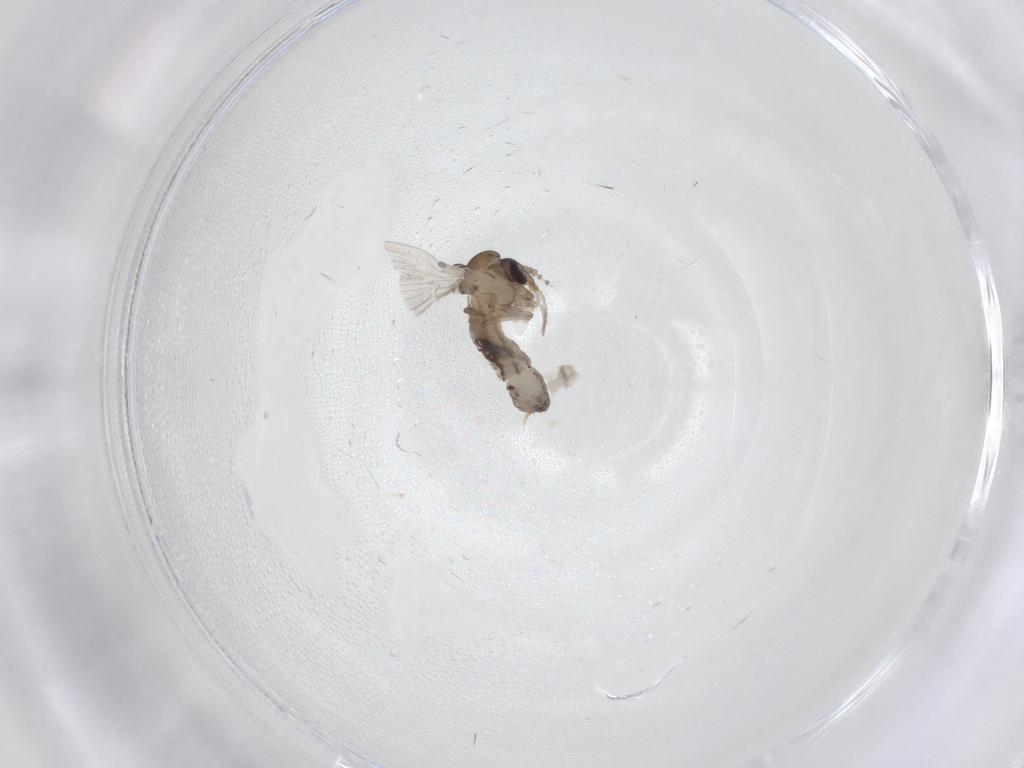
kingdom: Animalia
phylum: Arthropoda
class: Insecta
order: Diptera
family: Psychodidae
